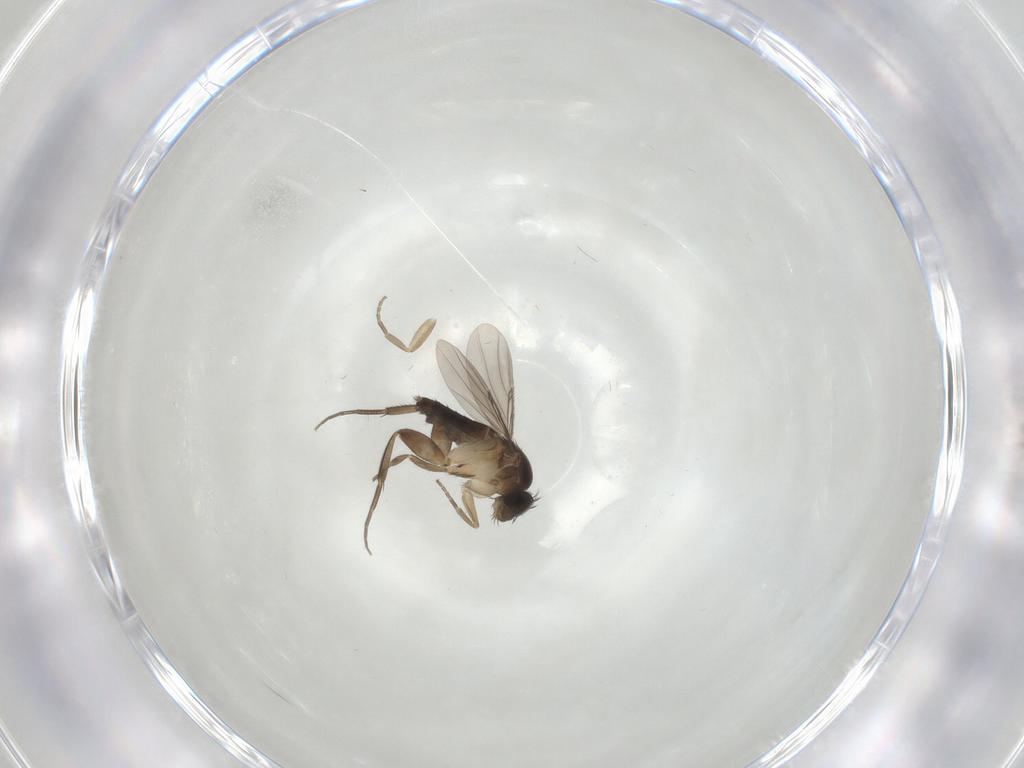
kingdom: Animalia
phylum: Arthropoda
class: Insecta
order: Diptera
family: Phoridae
